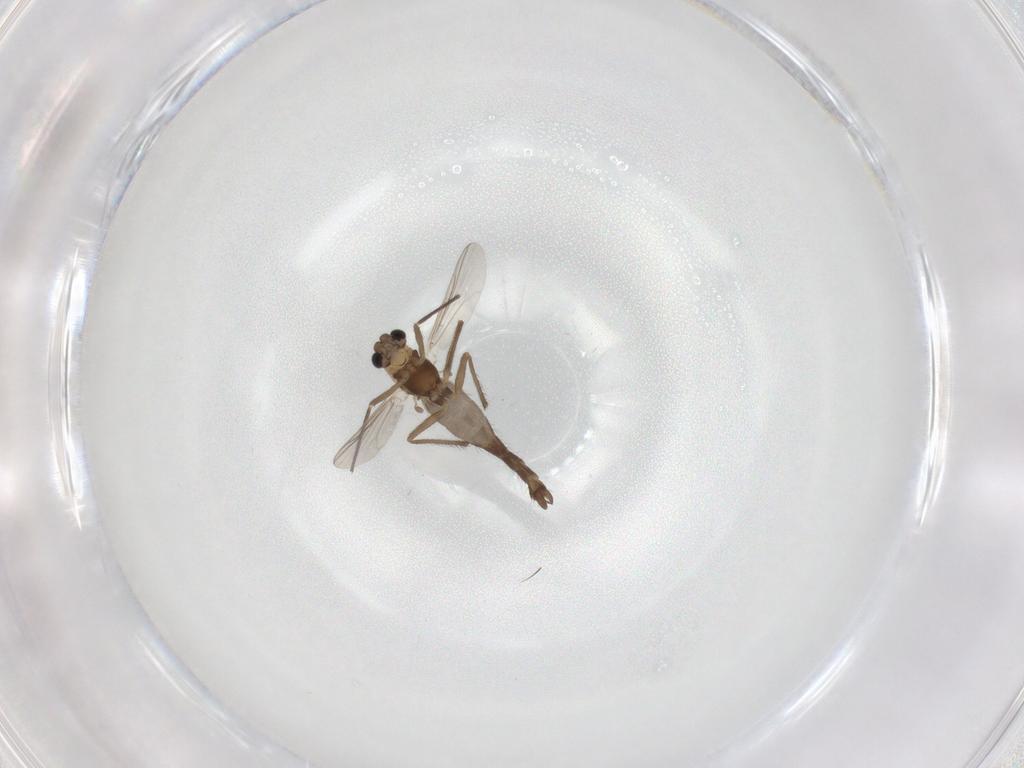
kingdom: Animalia
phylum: Arthropoda
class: Insecta
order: Diptera
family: Chironomidae
